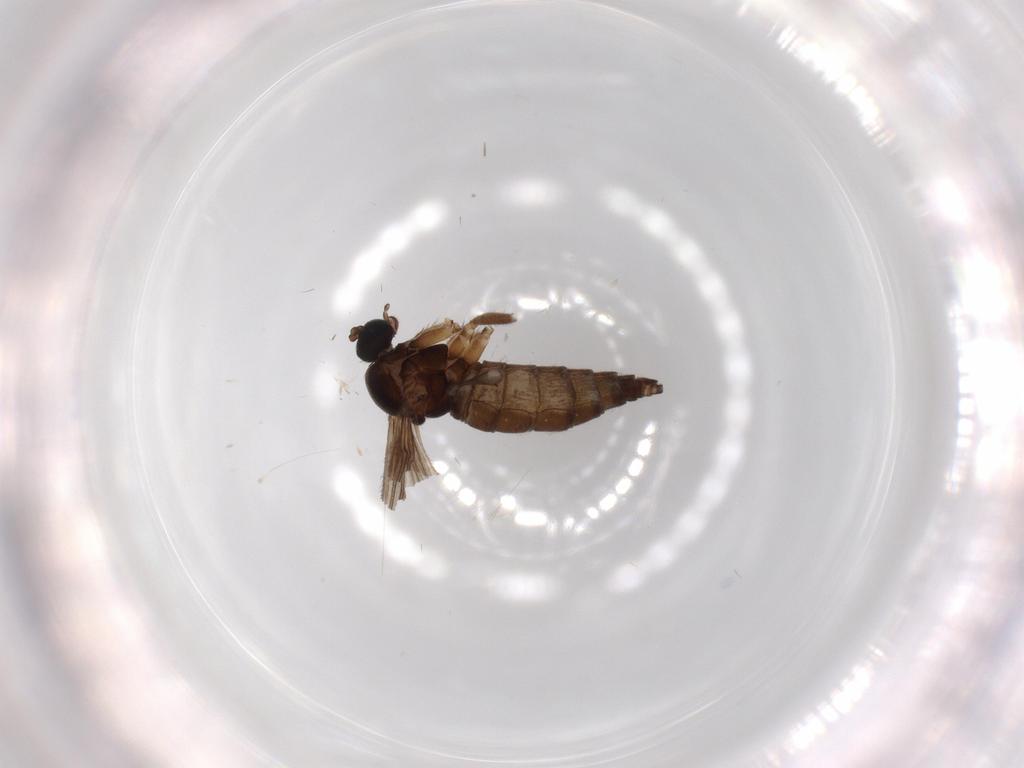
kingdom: Animalia
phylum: Arthropoda
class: Insecta
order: Diptera
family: Sciaridae
